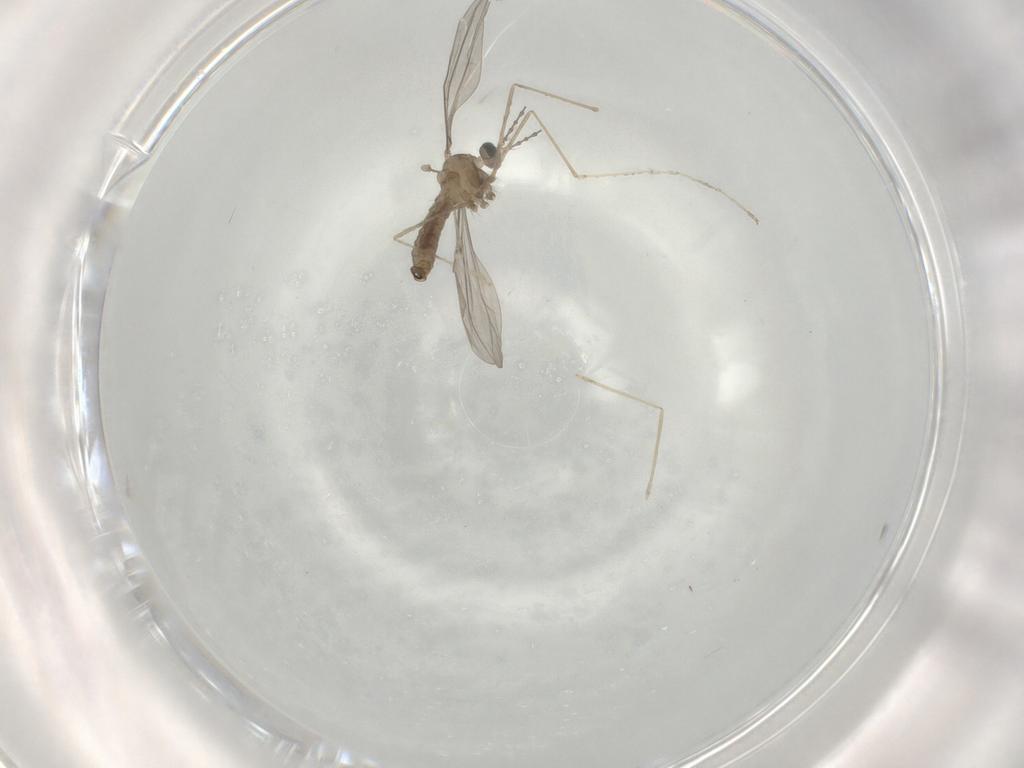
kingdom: Animalia
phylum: Arthropoda
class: Insecta
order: Diptera
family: Cecidomyiidae
